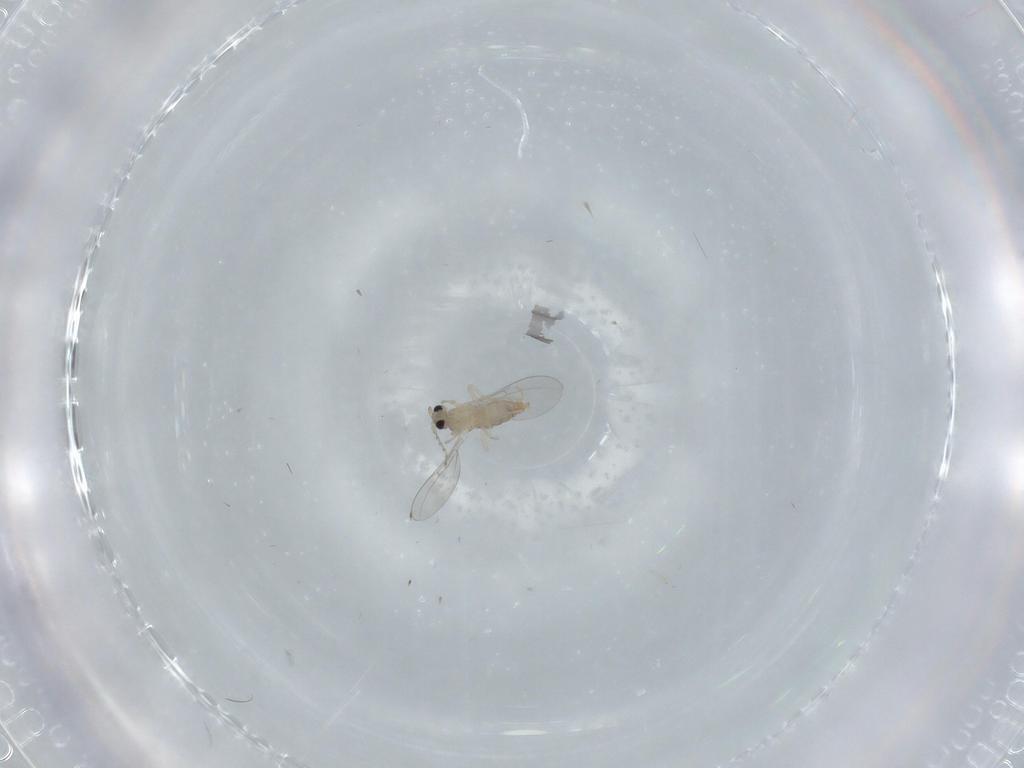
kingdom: Animalia
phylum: Arthropoda
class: Insecta
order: Diptera
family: Cecidomyiidae
